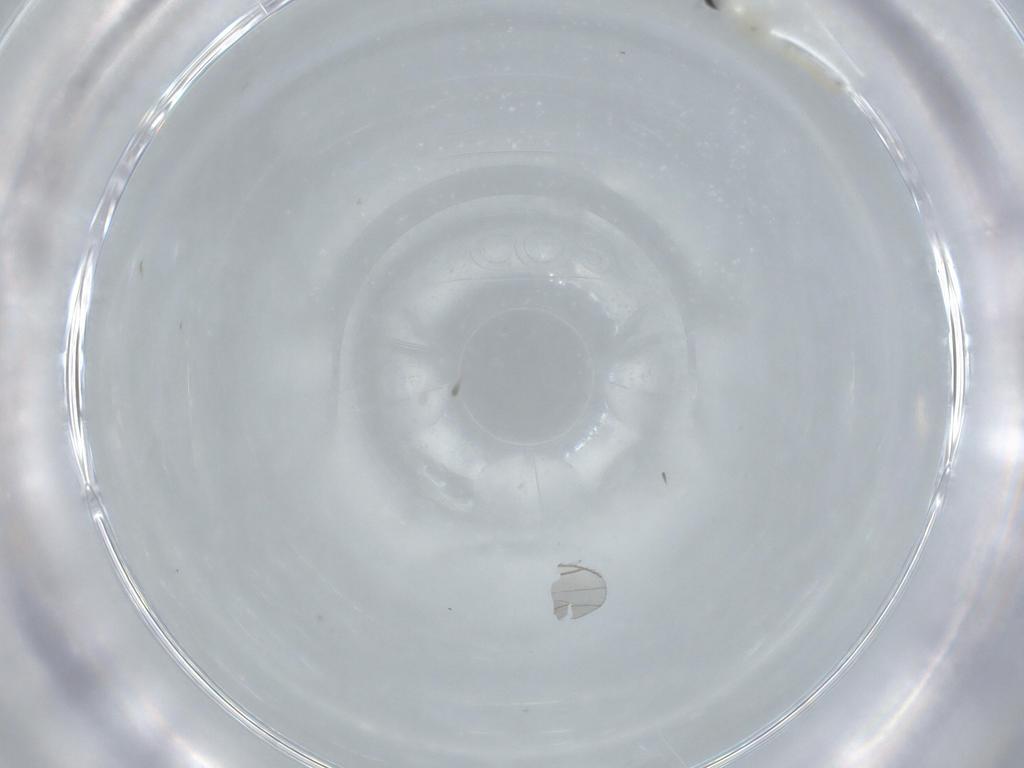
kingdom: Animalia
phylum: Arthropoda
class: Insecta
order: Diptera
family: Cecidomyiidae
